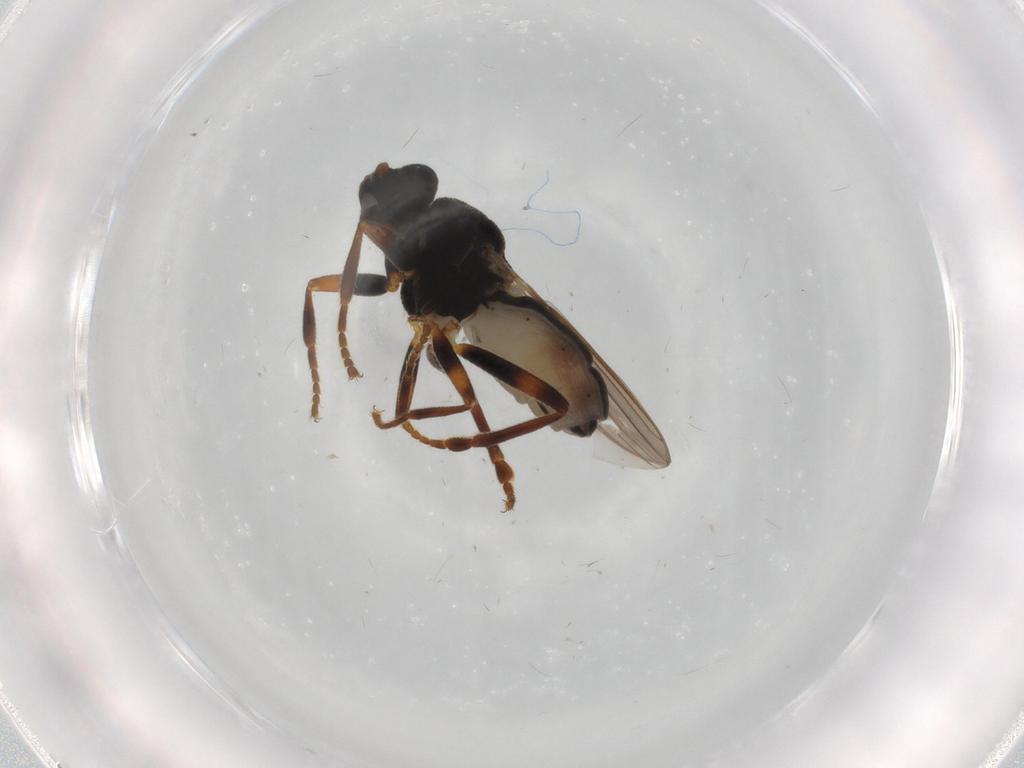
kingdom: Animalia
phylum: Arthropoda
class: Insecta
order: Diptera
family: Sphaeroceridae
